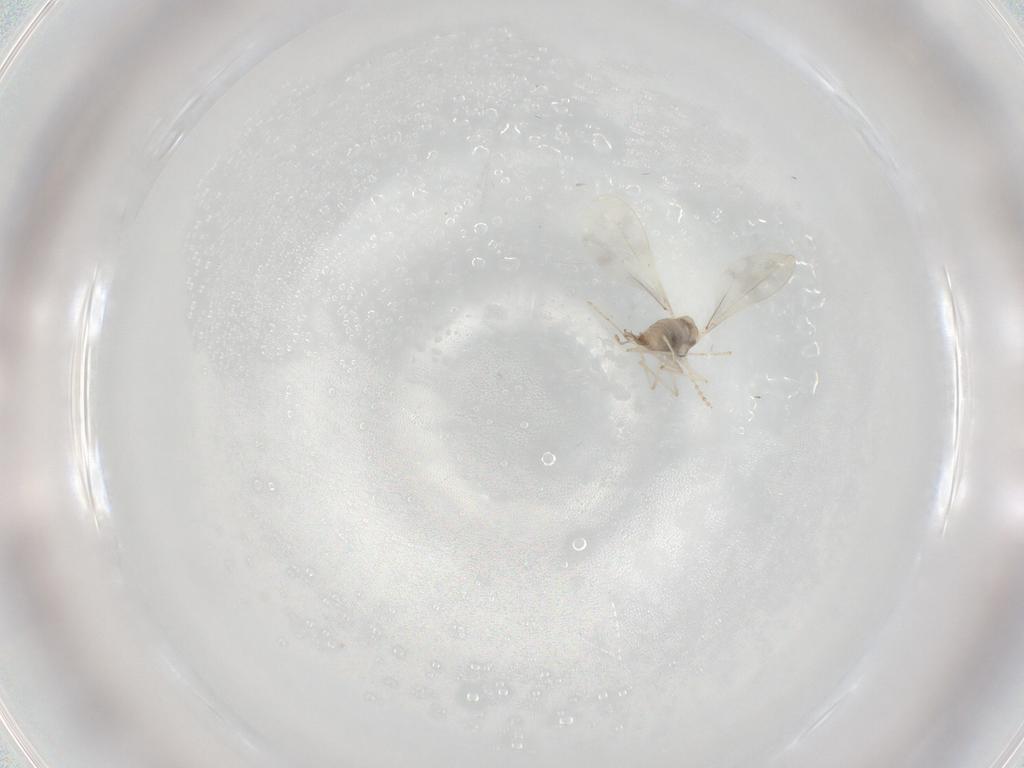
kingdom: Animalia
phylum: Arthropoda
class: Insecta
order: Diptera
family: Cecidomyiidae
